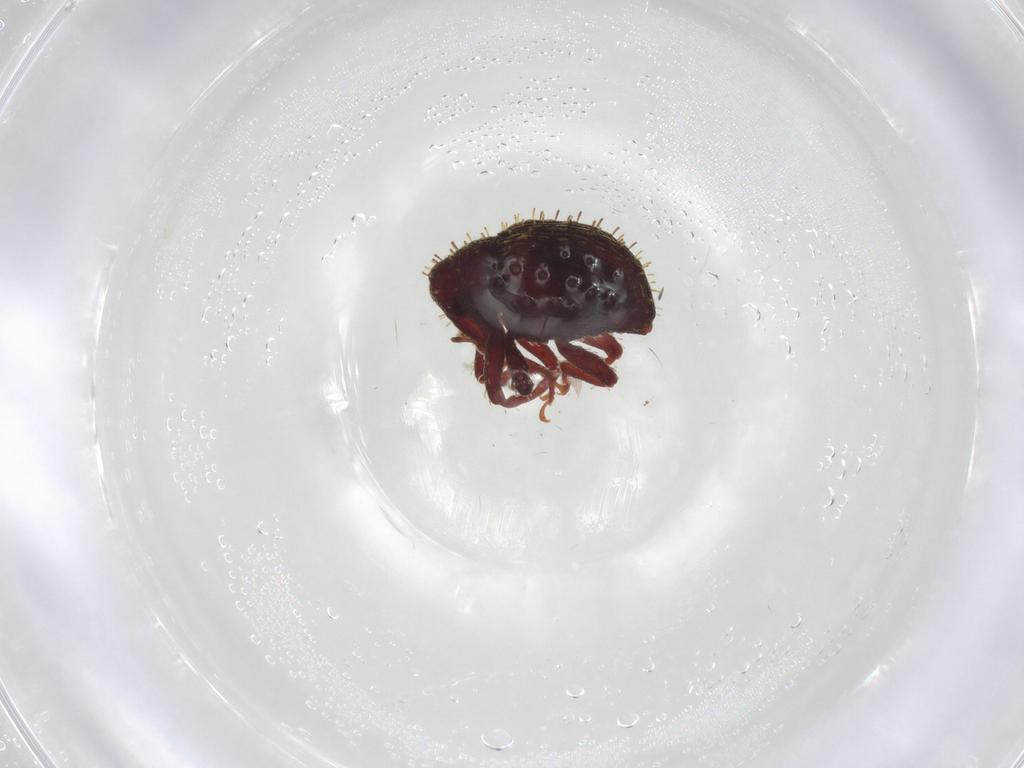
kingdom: Animalia
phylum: Arthropoda
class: Insecta
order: Coleoptera
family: Curculionidae
